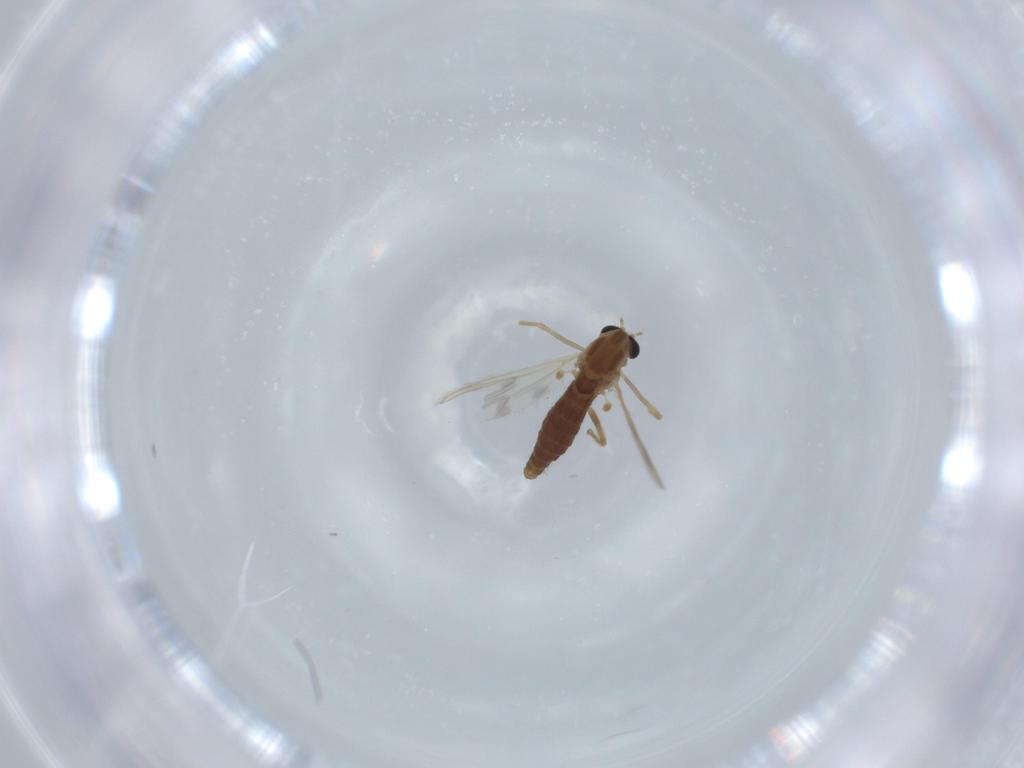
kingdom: Animalia
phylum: Arthropoda
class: Insecta
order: Diptera
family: Chironomidae
